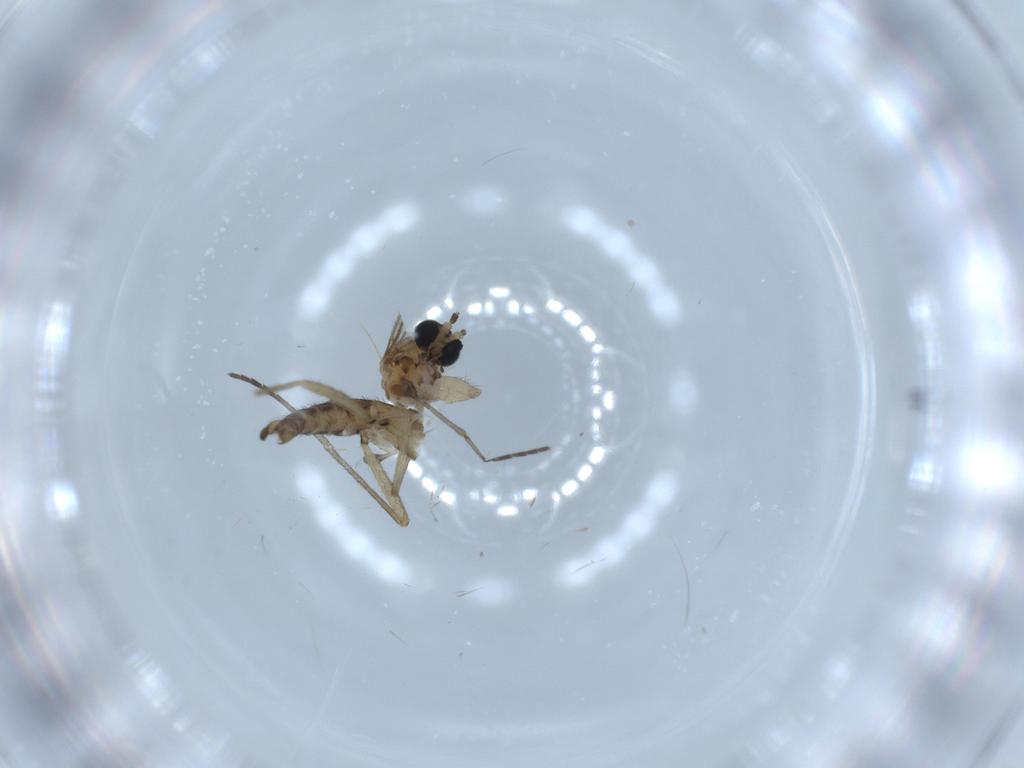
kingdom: Animalia
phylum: Arthropoda
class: Insecta
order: Diptera
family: Sciaridae
